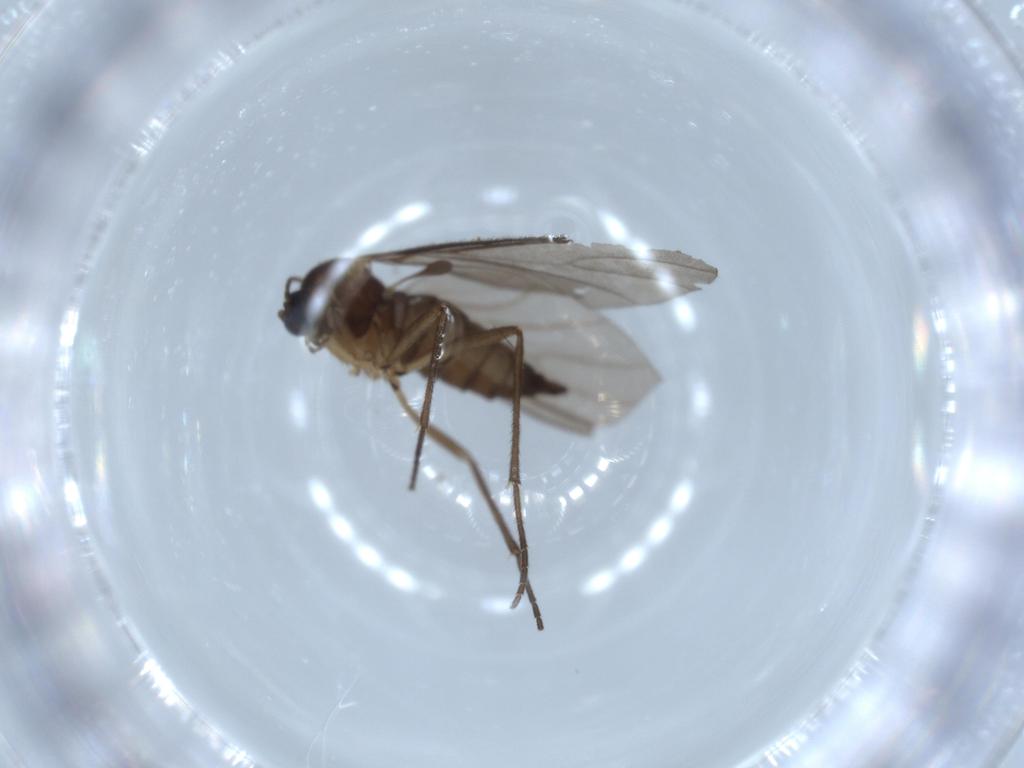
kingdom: Animalia
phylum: Arthropoda
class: Insecta
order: Diptera
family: Sciaridae
